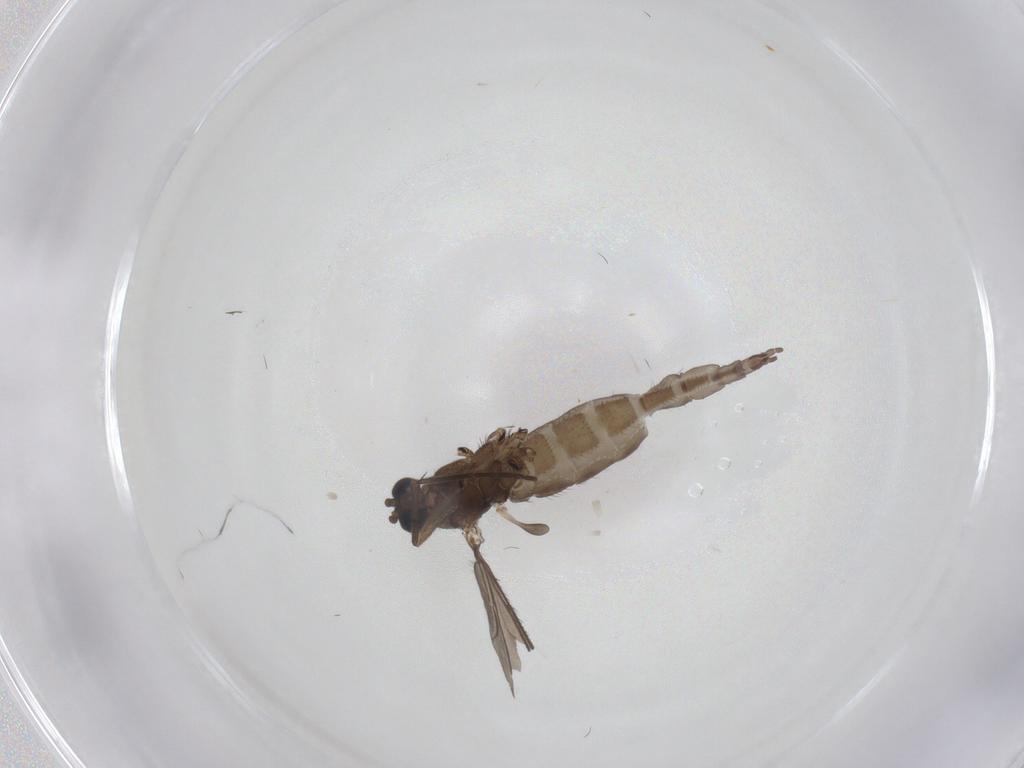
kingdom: Animalia
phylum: Arthropoda
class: Insecta
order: Diptera
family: Sciaridae
